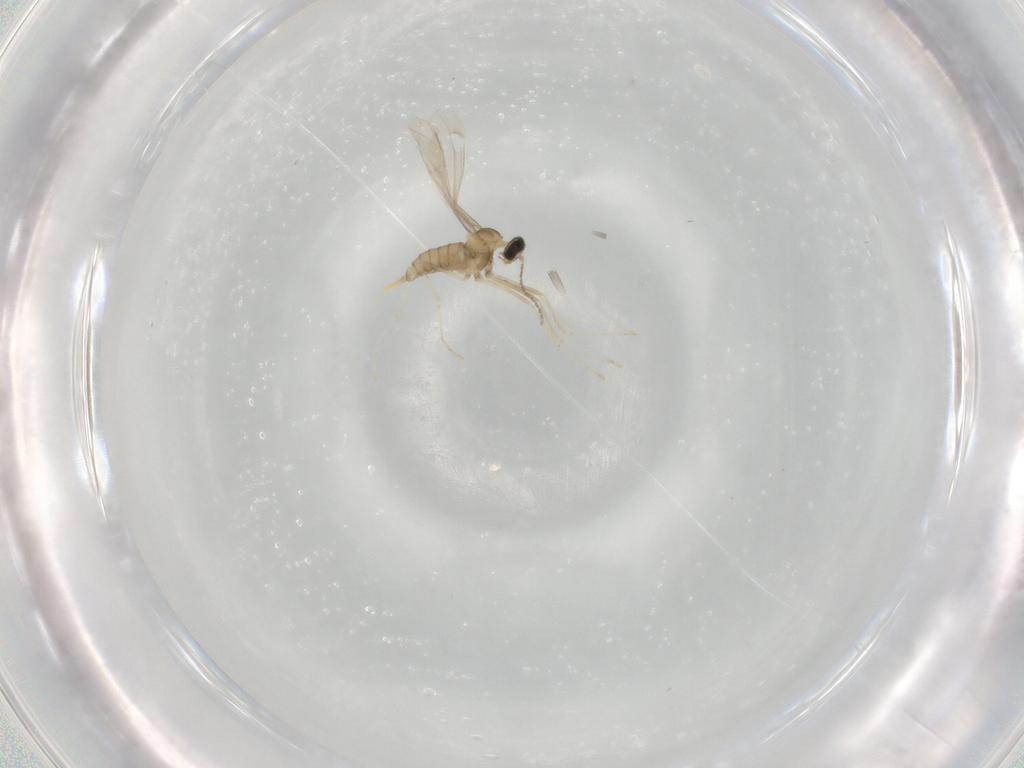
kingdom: Animalia
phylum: Arthropoda
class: Insecta
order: Diptera
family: Cecidomyiidae
